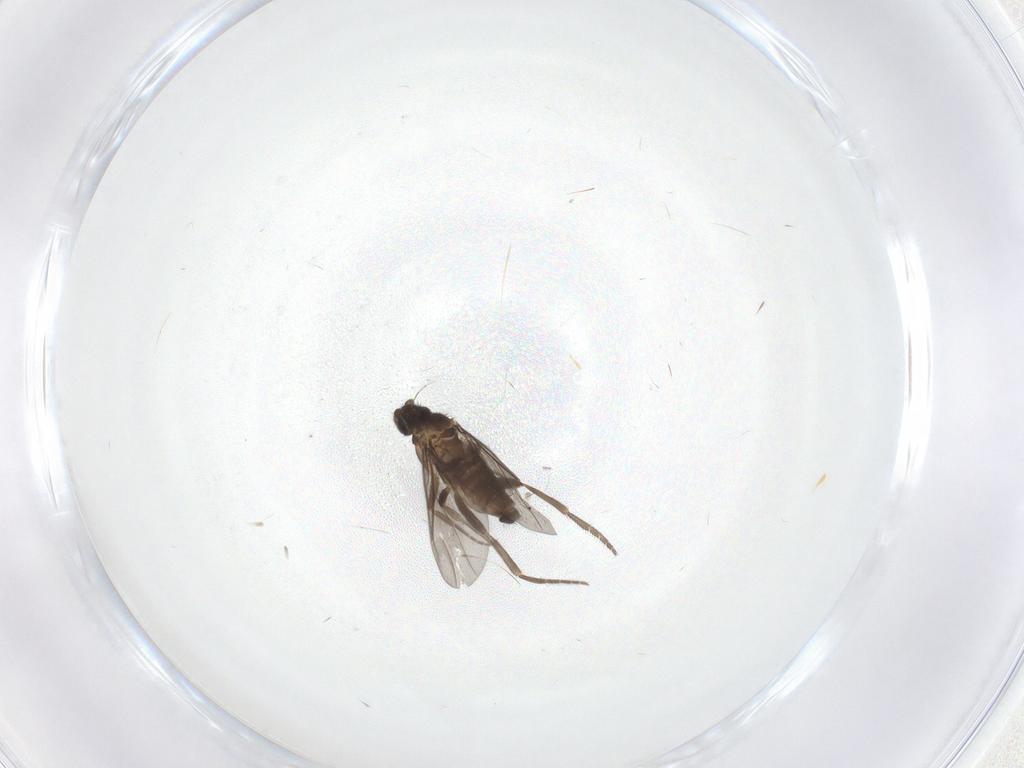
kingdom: Animalia
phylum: Arthropoda
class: Insecta
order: Diptera
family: Phoridae
